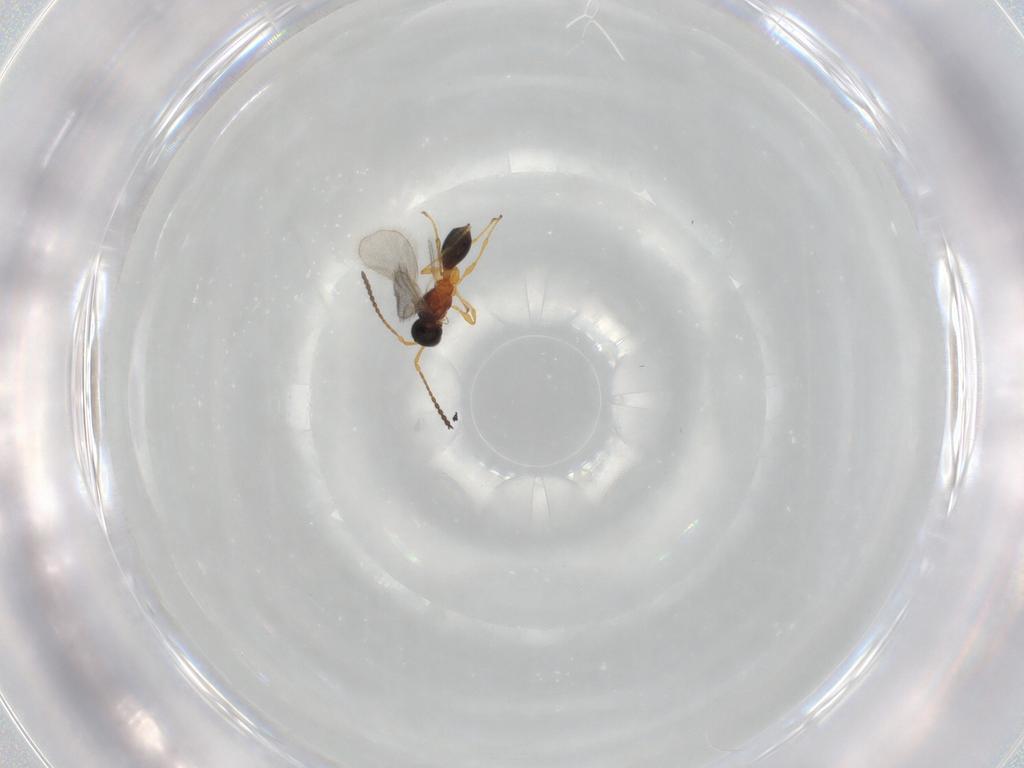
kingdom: Animalia
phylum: Arthropoda
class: Insecta
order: Hymenoptera
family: Diapriidae
